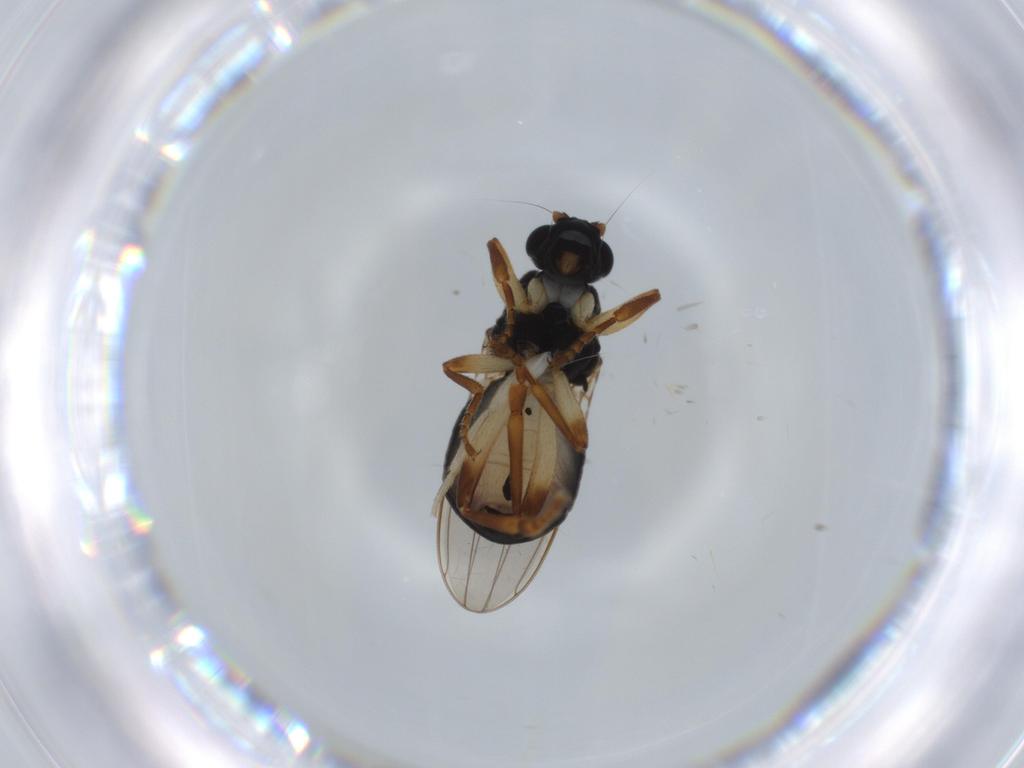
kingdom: Animalia
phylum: Arthropoda
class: Insecta
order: Diptera
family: Sphaeroceridae
